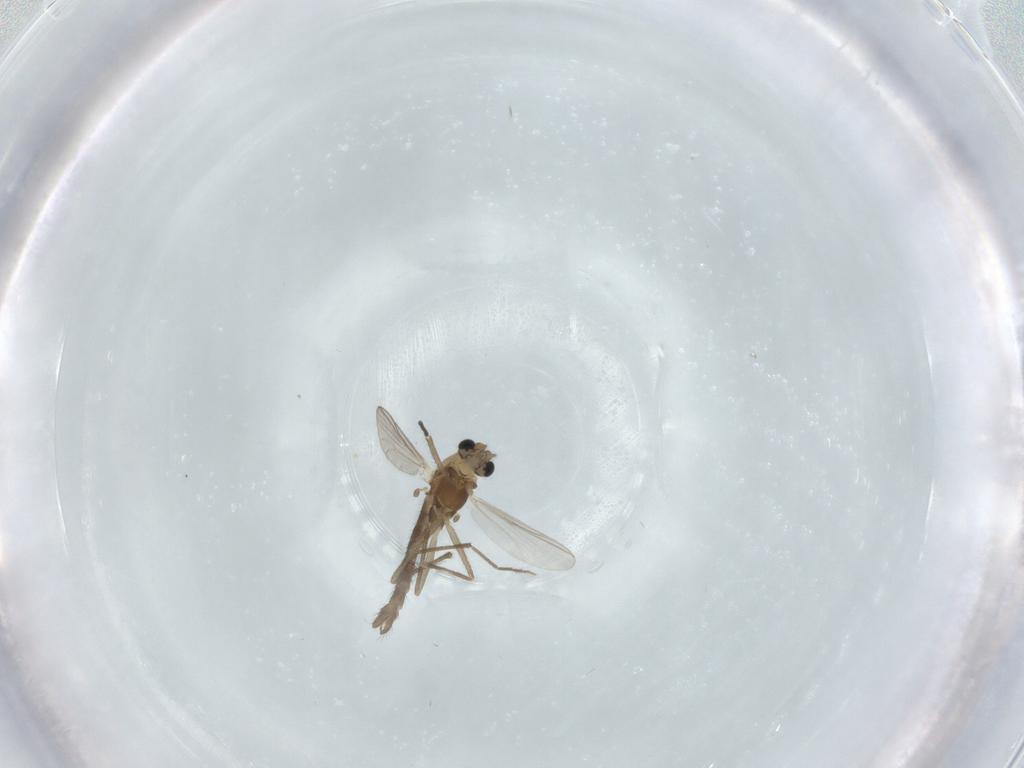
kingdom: Animalia
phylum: Arthropoda
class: Insecta
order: Diptera
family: Chironomidae
